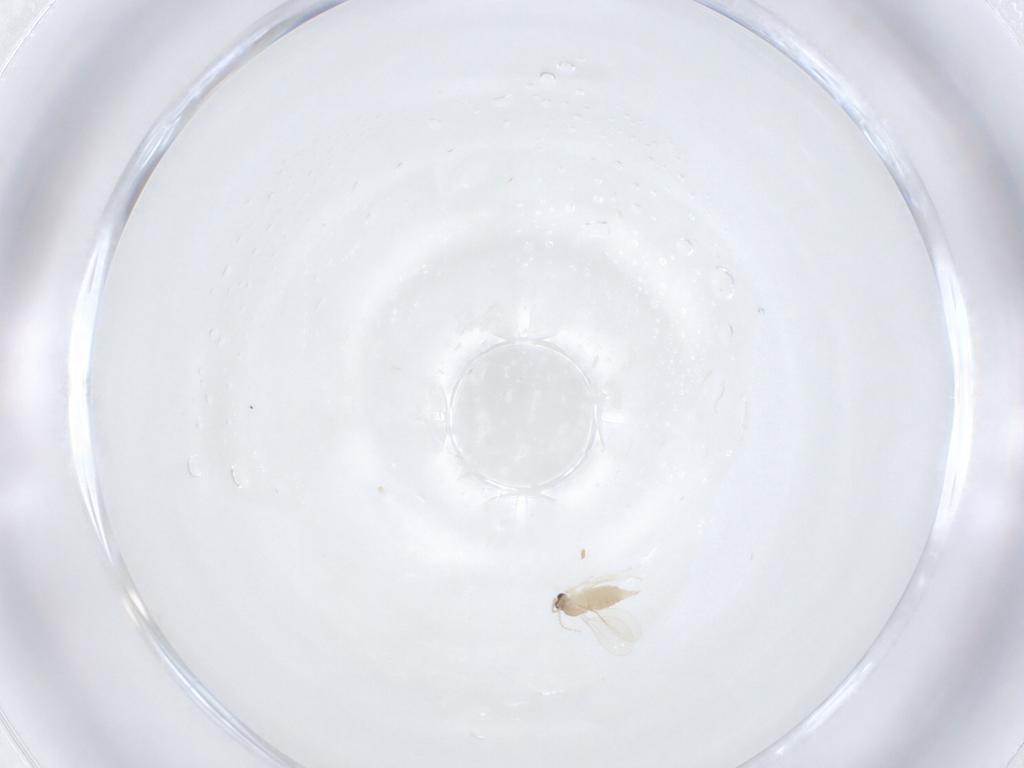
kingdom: Animalia
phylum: Arthropoda
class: Insecta
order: Diptera
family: Cecidomyiidae
